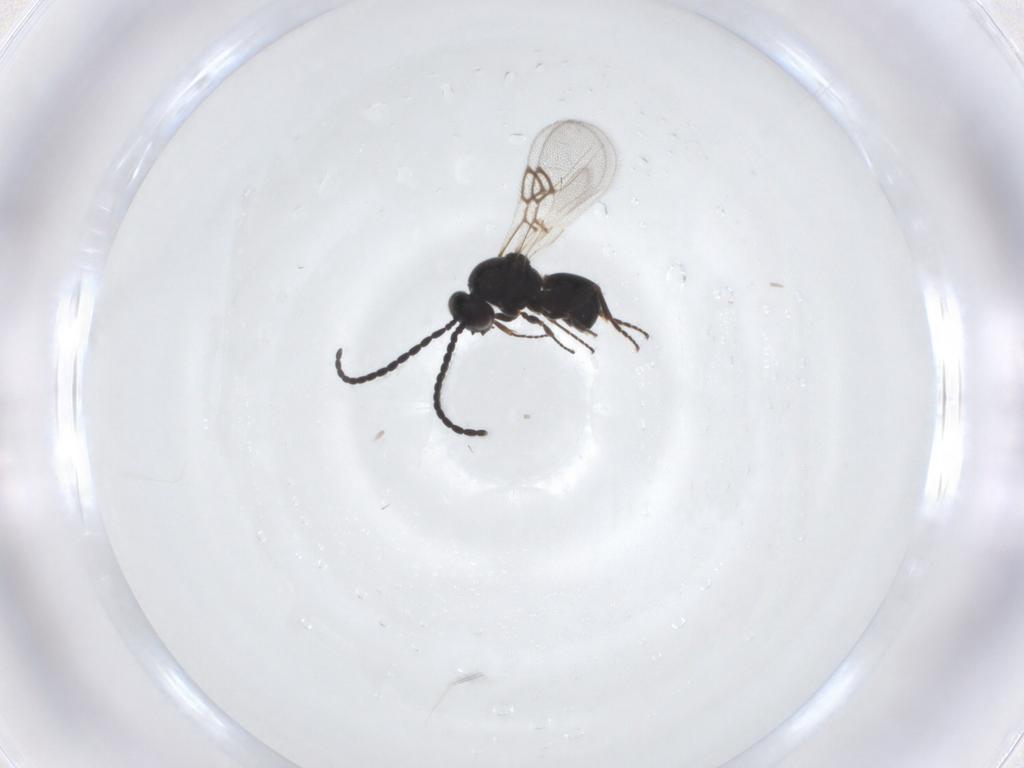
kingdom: Animalia
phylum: Arthropoda
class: Insecta
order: Hymenoptera
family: Figitidae
